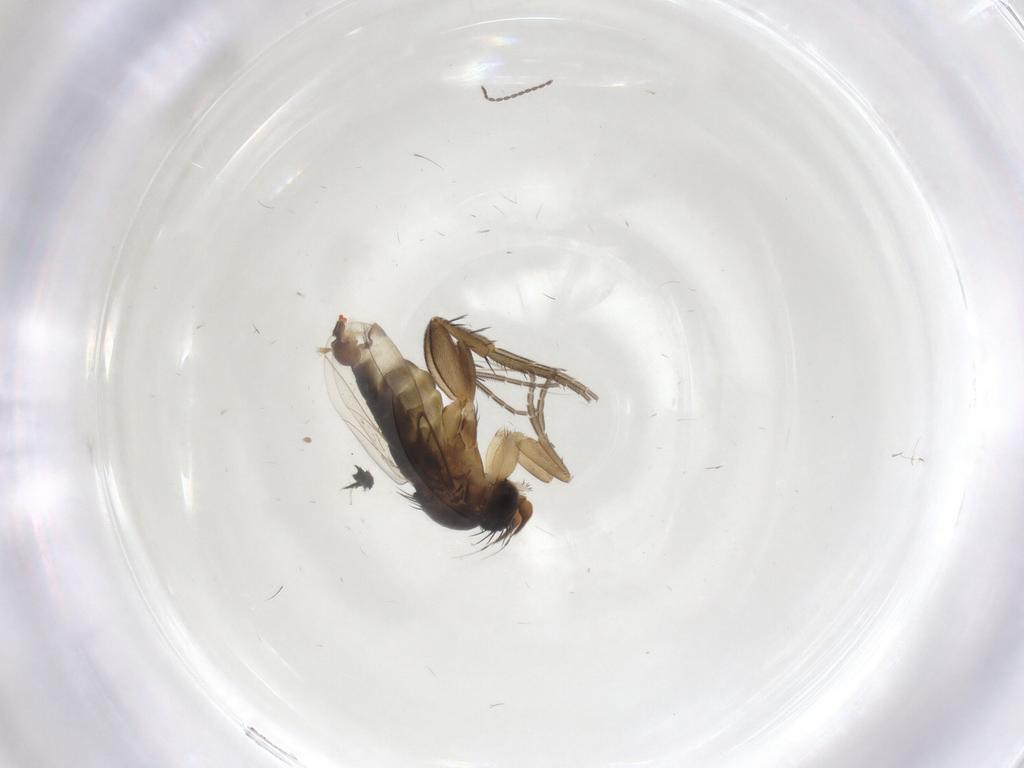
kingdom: Animalia
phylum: Arthropoda
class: Insecta
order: Diptera
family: Phoridae
